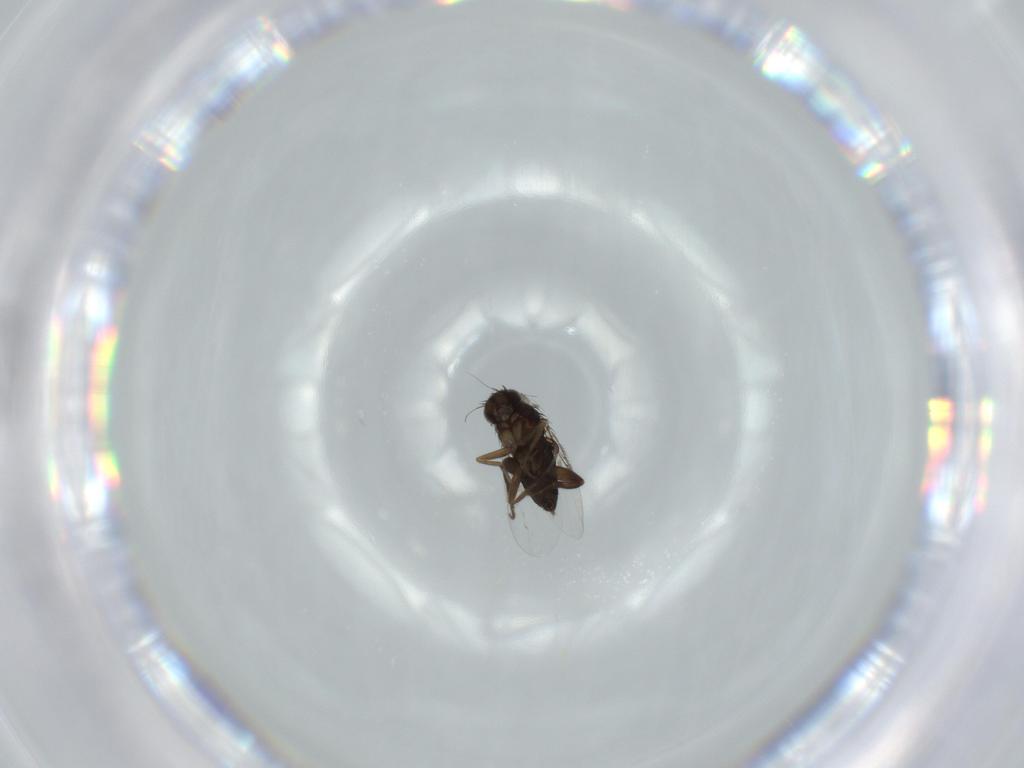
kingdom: Animalia
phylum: Arthropoda
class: Insecta
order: Diptera
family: Phoridae
